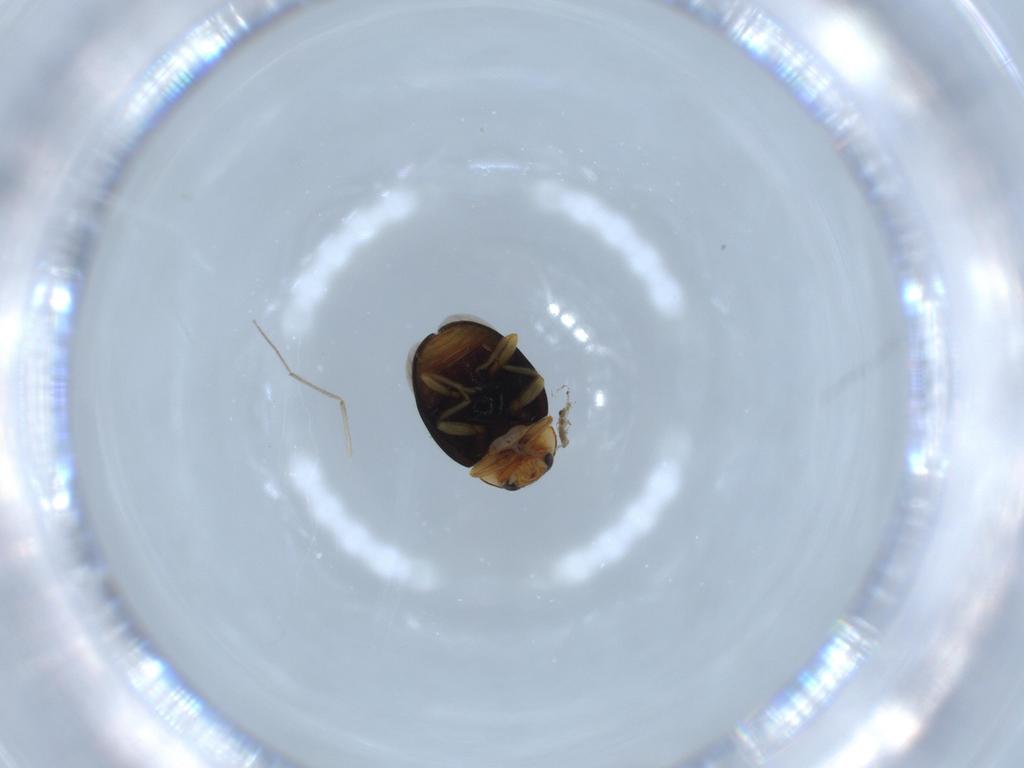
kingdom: Animalia
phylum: Arthropoda
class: Insecta
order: Coleoptera
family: Coccinellidae
